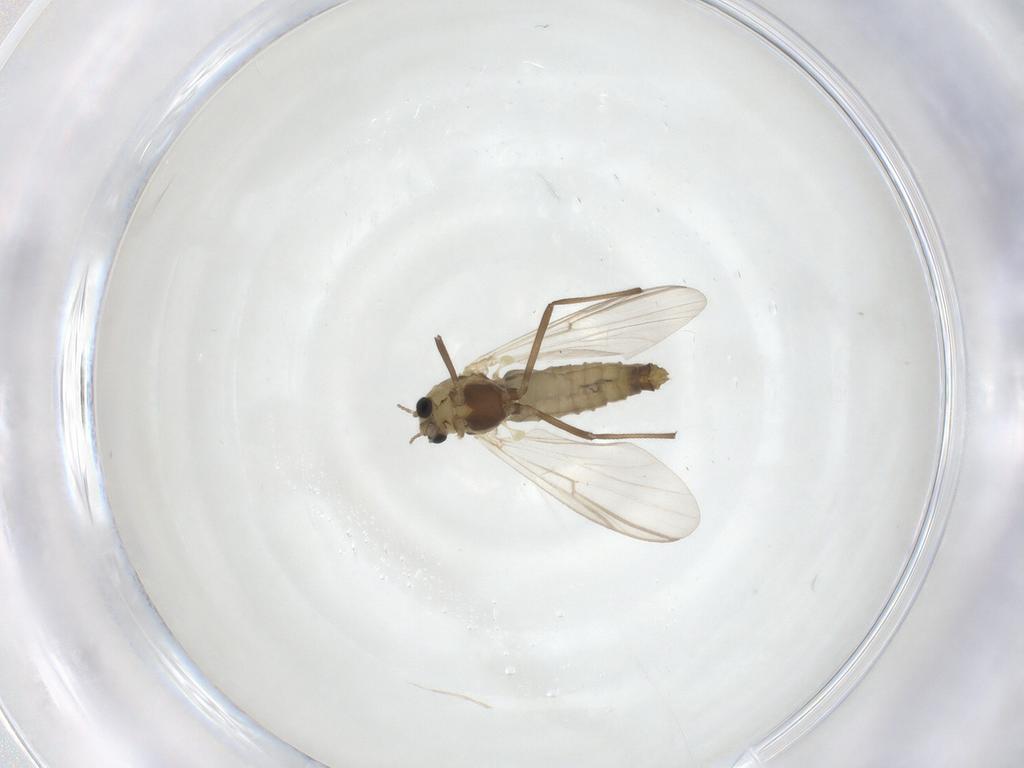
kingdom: Animalia
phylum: Arthropoda
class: Insecta
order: Diptera
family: Chironomidae
